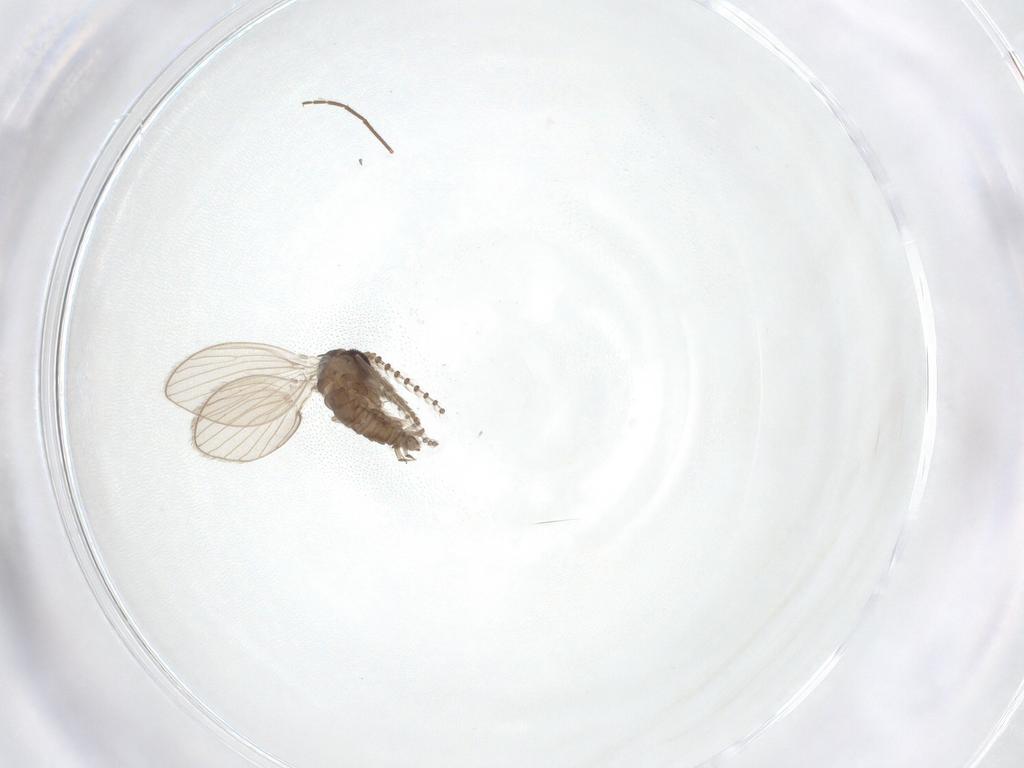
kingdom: Animalia
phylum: Arthropoda
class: Insecta
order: Diptera
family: Psychodidae
